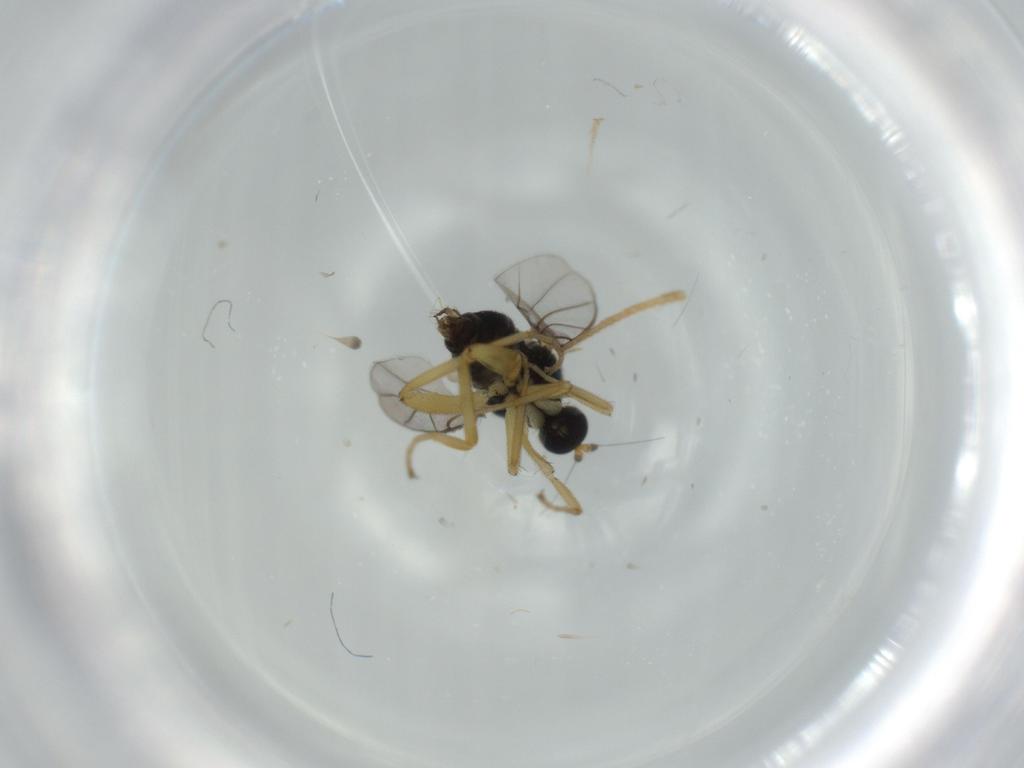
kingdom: Animalia
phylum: Arthropoda
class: Insecta
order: Diptera
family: Hybotidae
